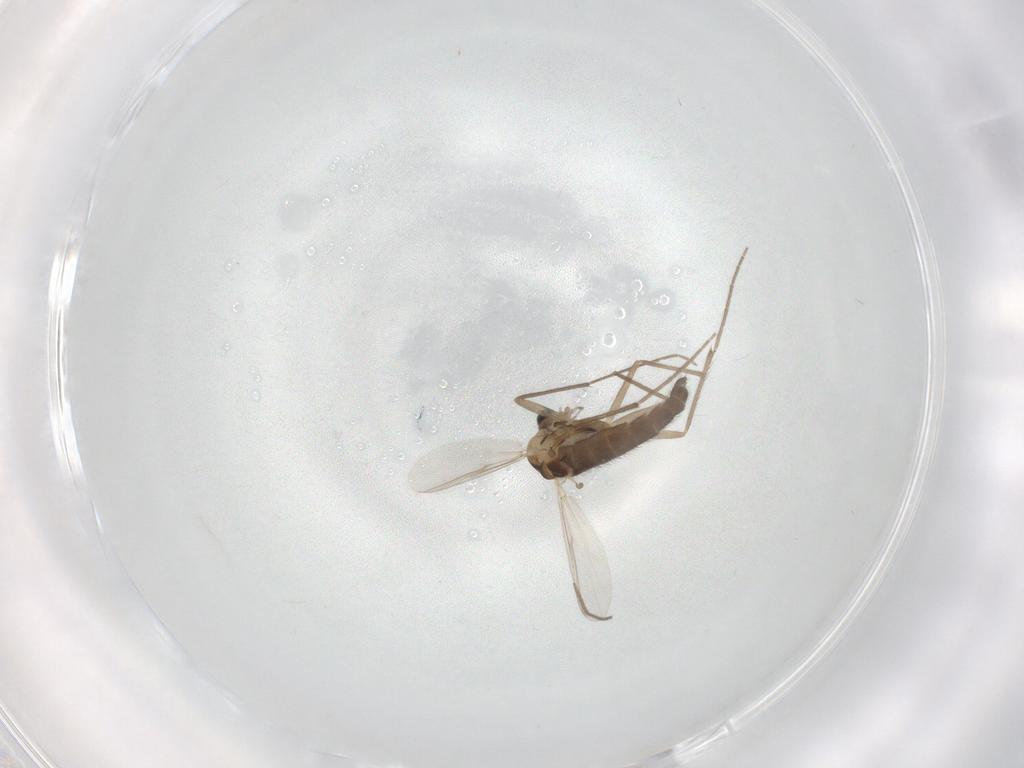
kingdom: Animalia
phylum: Arthropoda
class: Insecta
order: Diptera
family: Chironomidae
